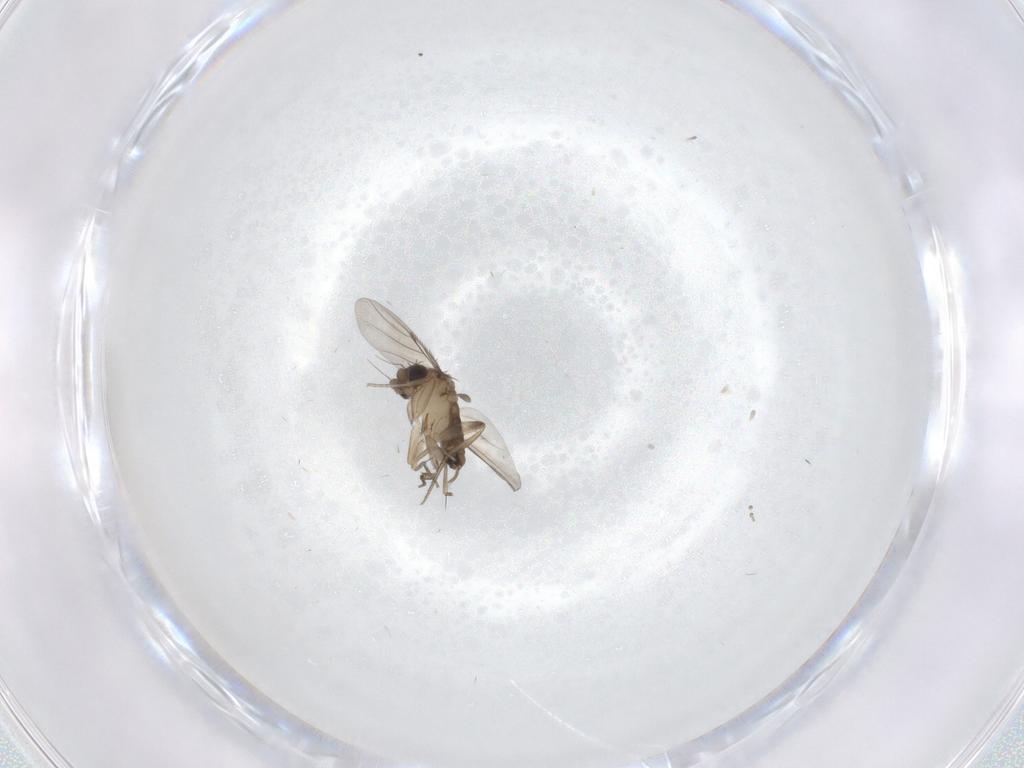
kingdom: Animalia
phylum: Arthropoda
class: Insecta
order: Diptera
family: Phoridae
